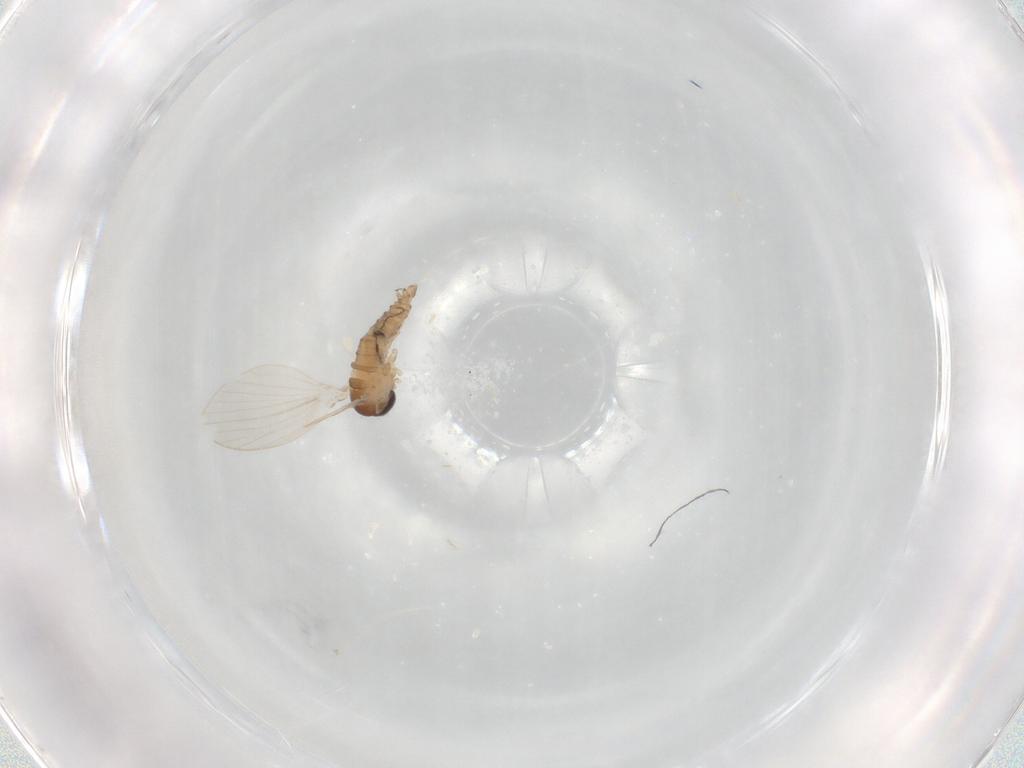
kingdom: Animalia
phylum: Arthropoda
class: Insecta
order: Diptera
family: Psychodidae
